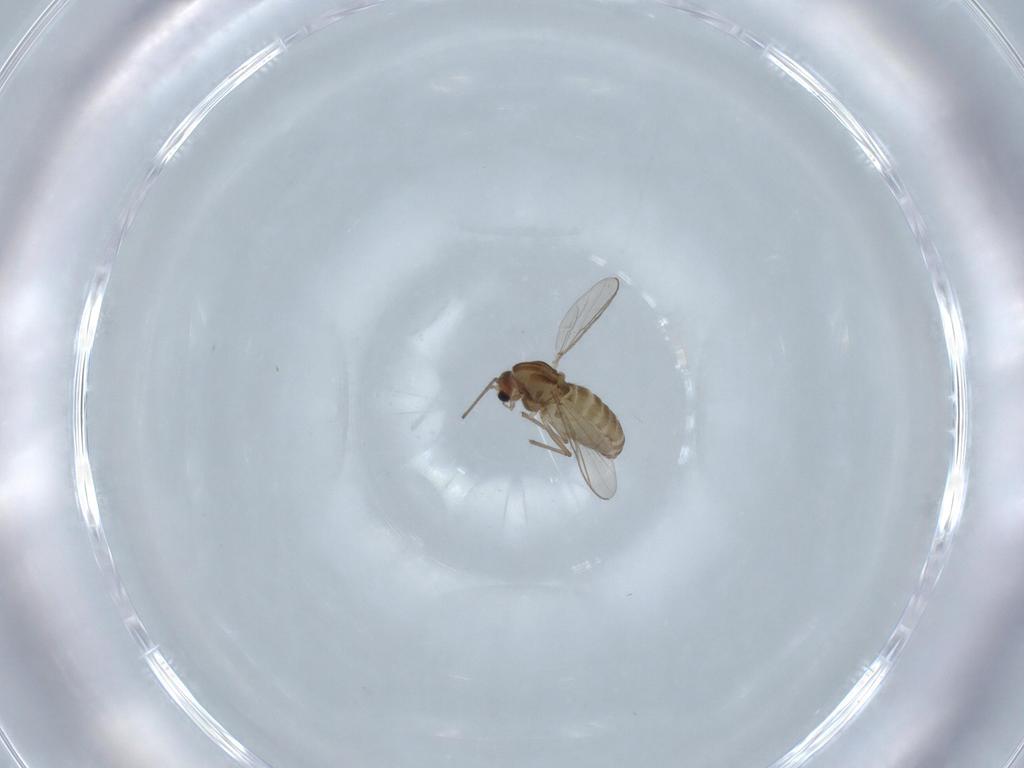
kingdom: Animalia
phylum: Arthropoda
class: Insecta
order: Diptera
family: Chironomidae
